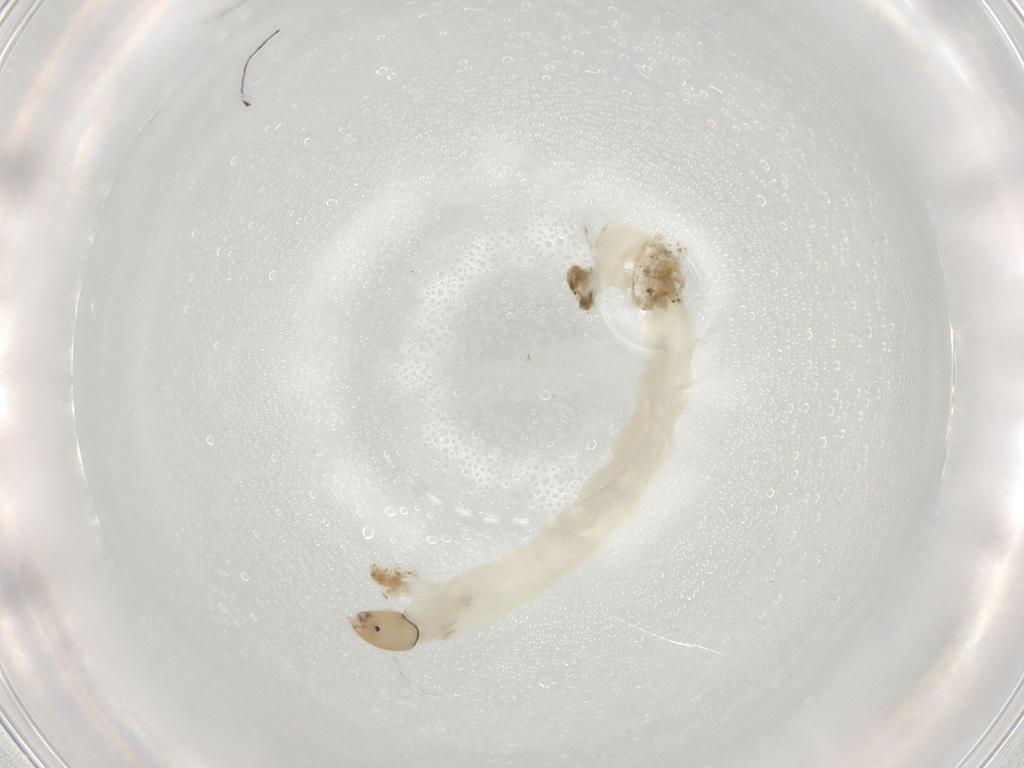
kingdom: Animalia
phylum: Arthropoda
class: Insecta
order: Diptera
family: Chironomidae
